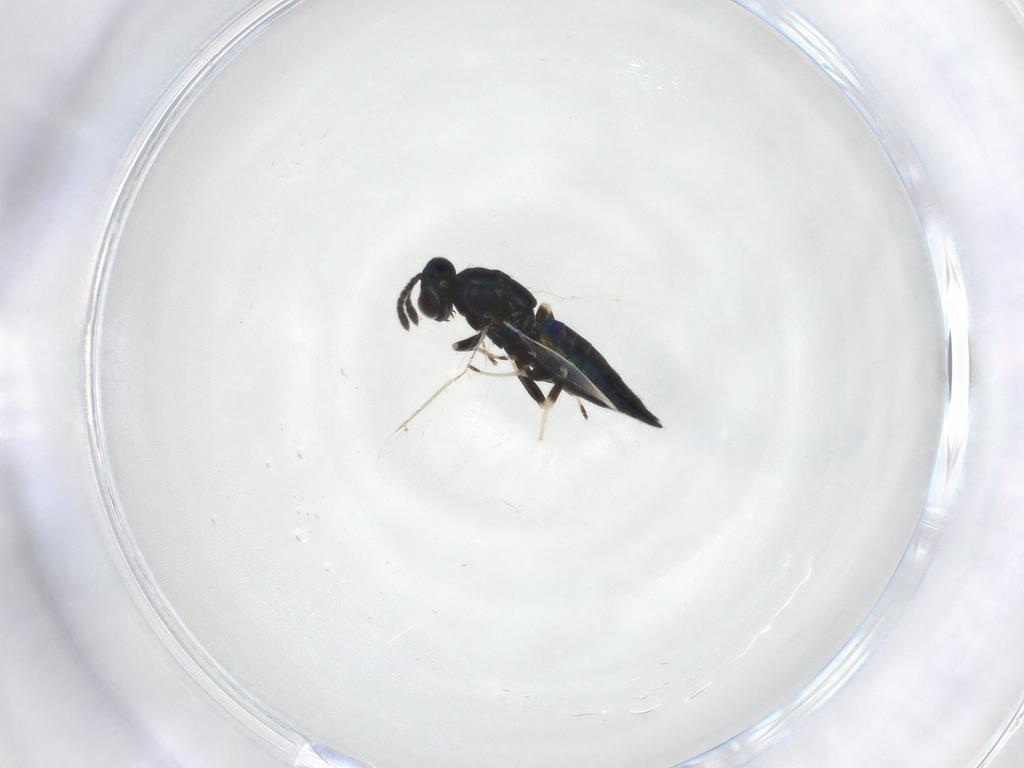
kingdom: Animalia
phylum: Arthropoda
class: Insecta
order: Hymenoptera
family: Eulophidae
